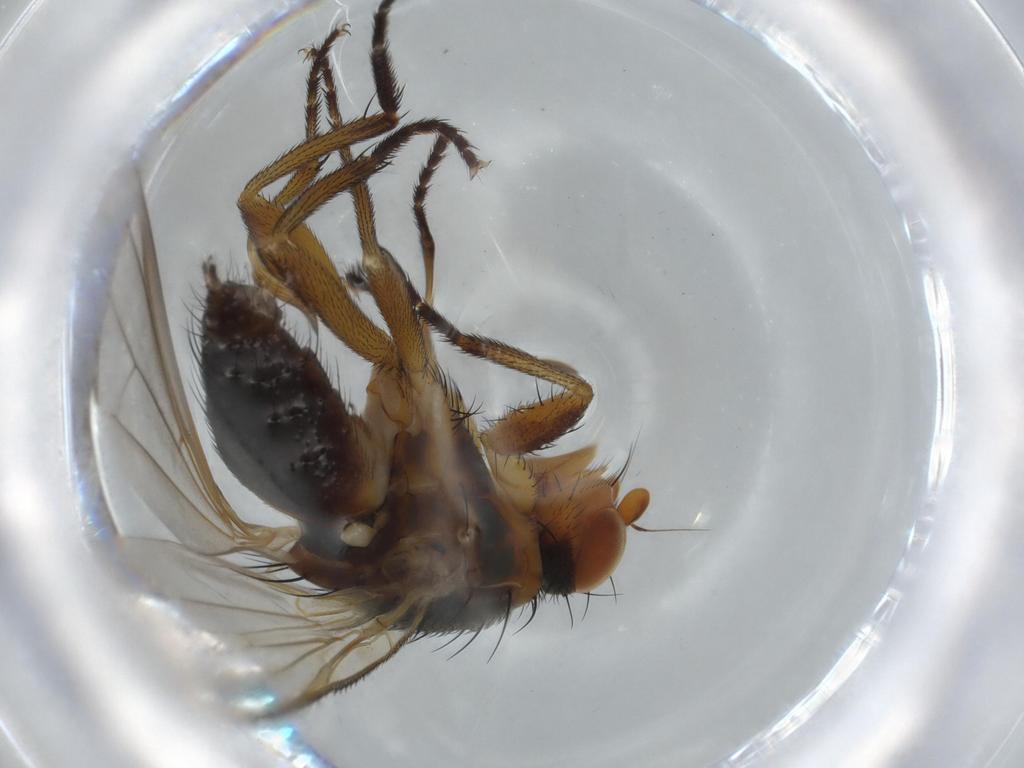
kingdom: Animalia
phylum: Arthropoda
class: Insecta
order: Diptera
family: Heleomyzidae
